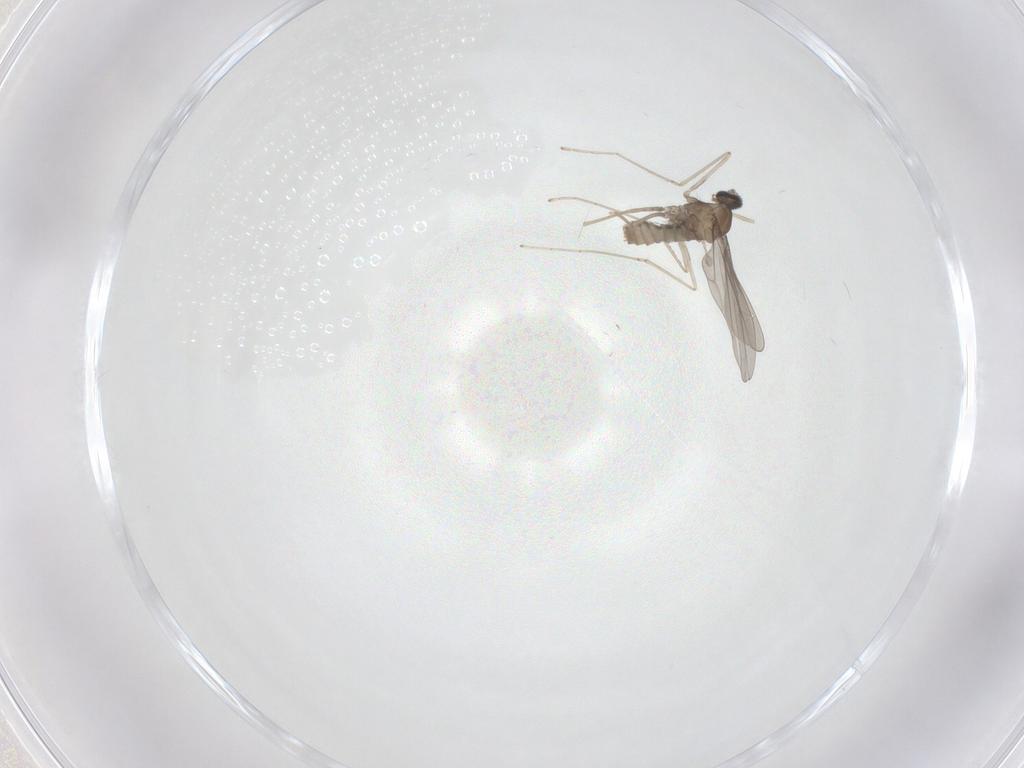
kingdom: Animalia
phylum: Arthropoda
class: Insecta
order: Diptera
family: Cecidomyiidae
